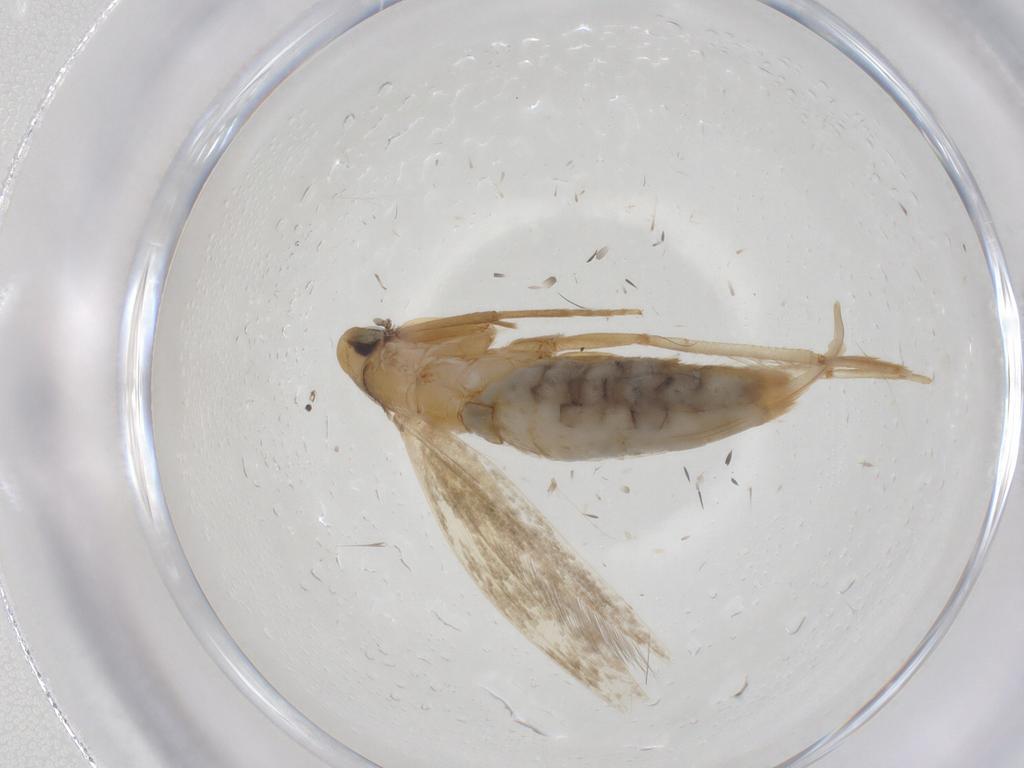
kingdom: Animalia
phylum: Arthropoda
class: Insecta
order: Lepidoptera
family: Tineidae
